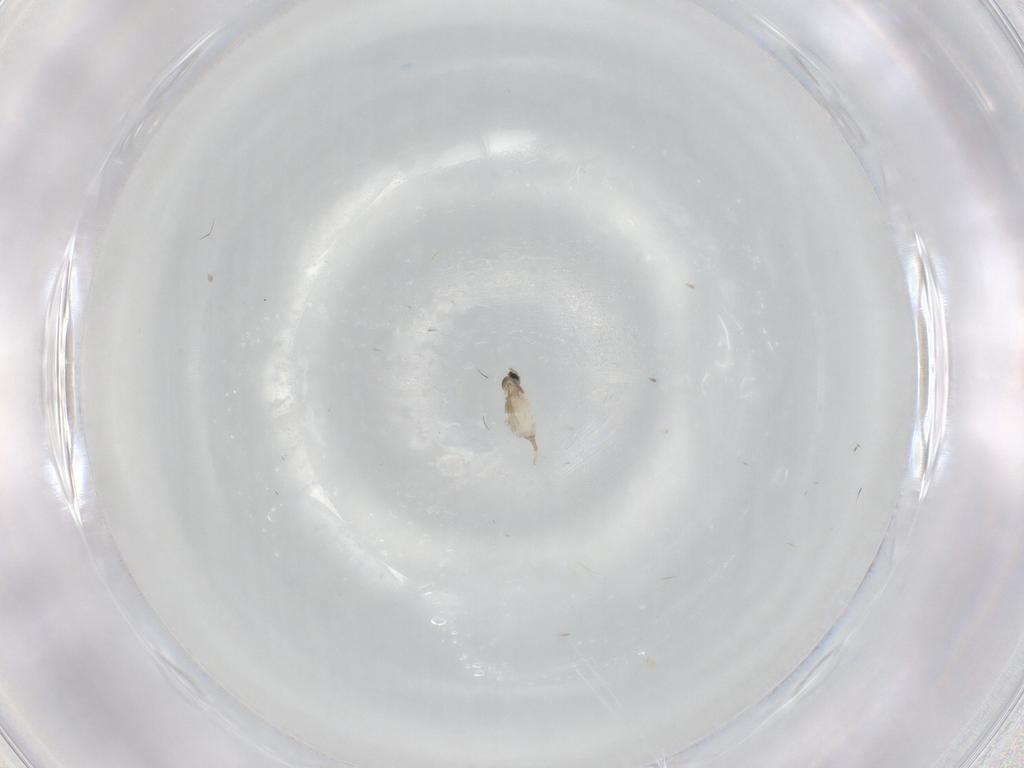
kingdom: Animalia
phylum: Arthropoda
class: Insecta
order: Diptera
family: Cecidomyiidae
